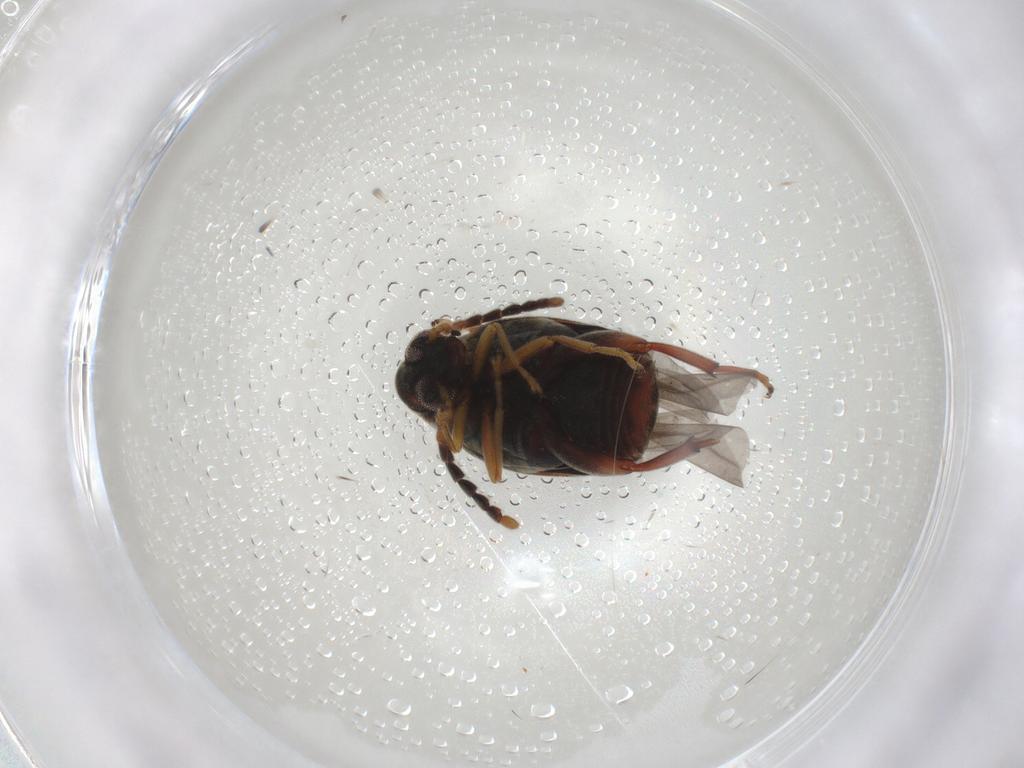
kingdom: Animalia
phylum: Arthropoda
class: Insecta
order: Coleoptera
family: Chrysomelidae
